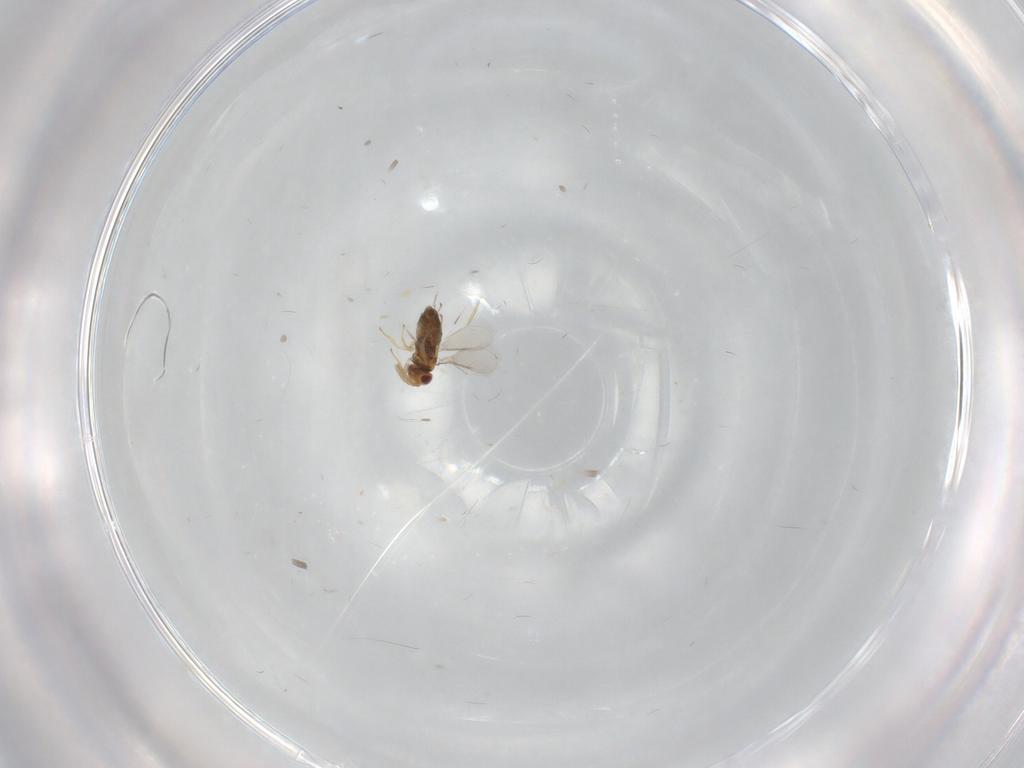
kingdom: Animalia
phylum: Arthropoda
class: Insecta
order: Hymenoptera
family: Aphelinidae
